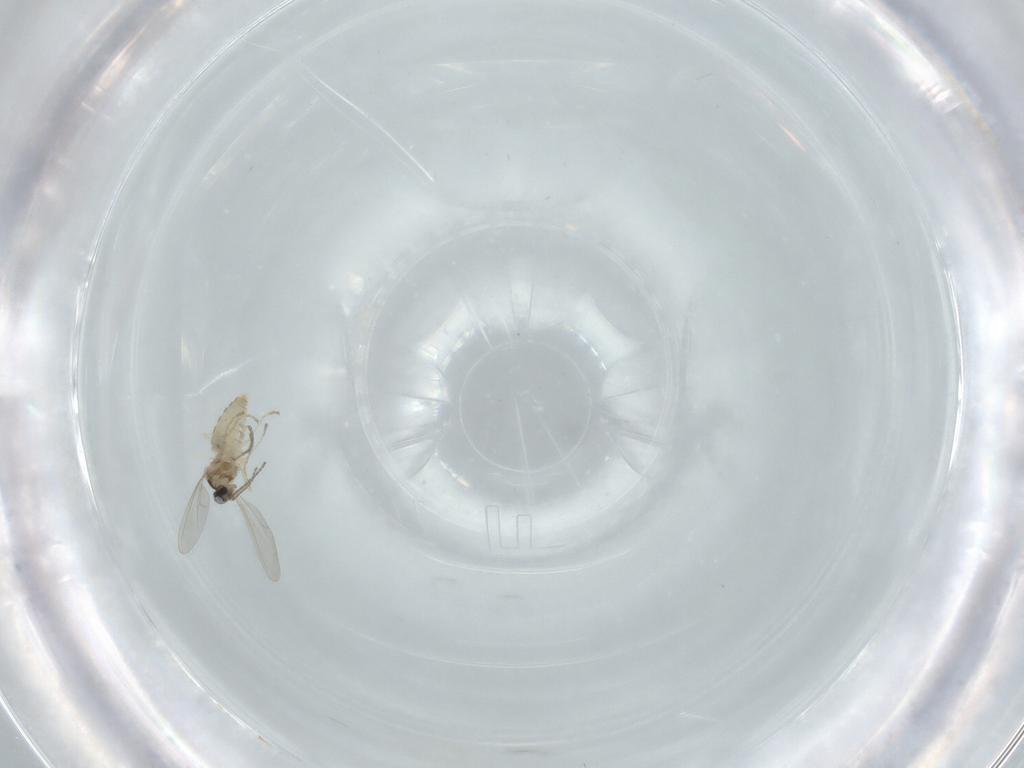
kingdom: Animalia
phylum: Arthropoda
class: Insecta
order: Diptera
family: Cecidomyiidae
